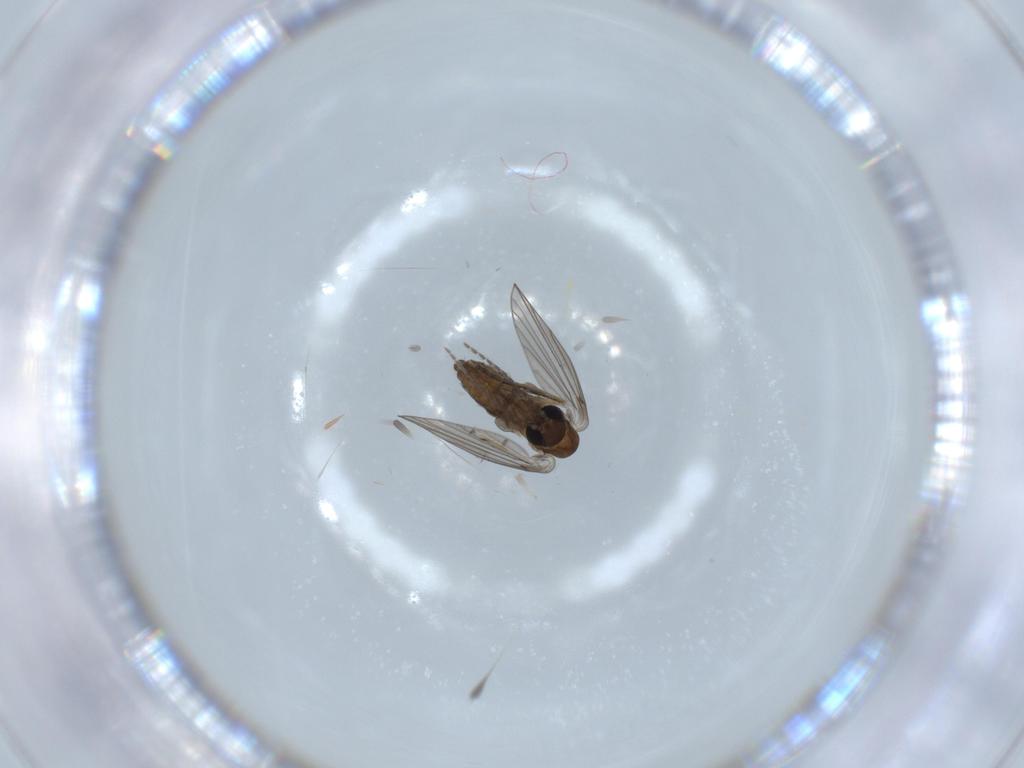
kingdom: Animalia
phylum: Arthropoda
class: Insecta
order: Diptera
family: Psychodidae
